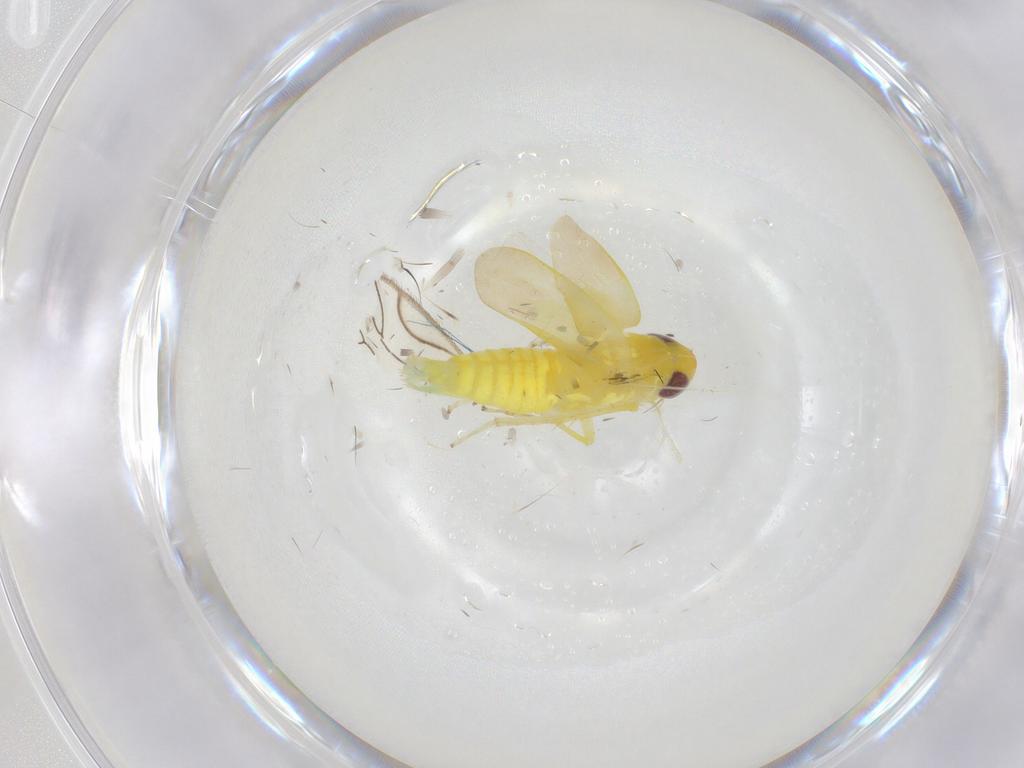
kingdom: Animalia
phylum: Arthropoda
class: Insecta
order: Hemiptera
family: Cicadellidae
